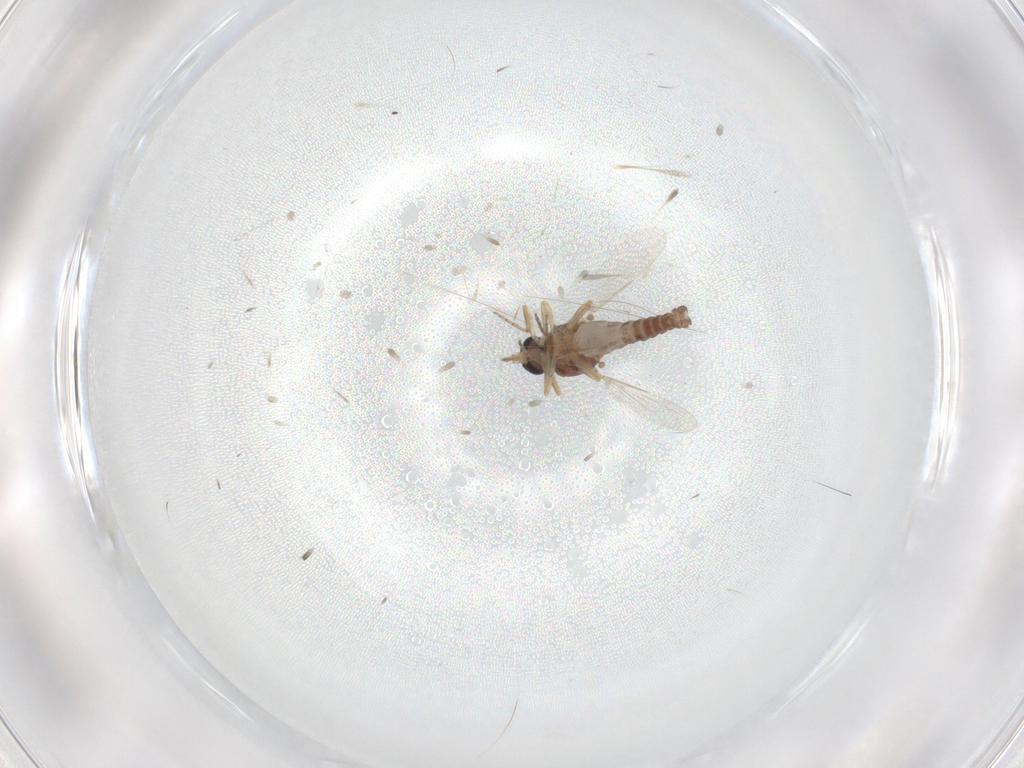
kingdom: Animalia
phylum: Arthropoda
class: Insecta
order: Diptera
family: Ceratopogonidae
